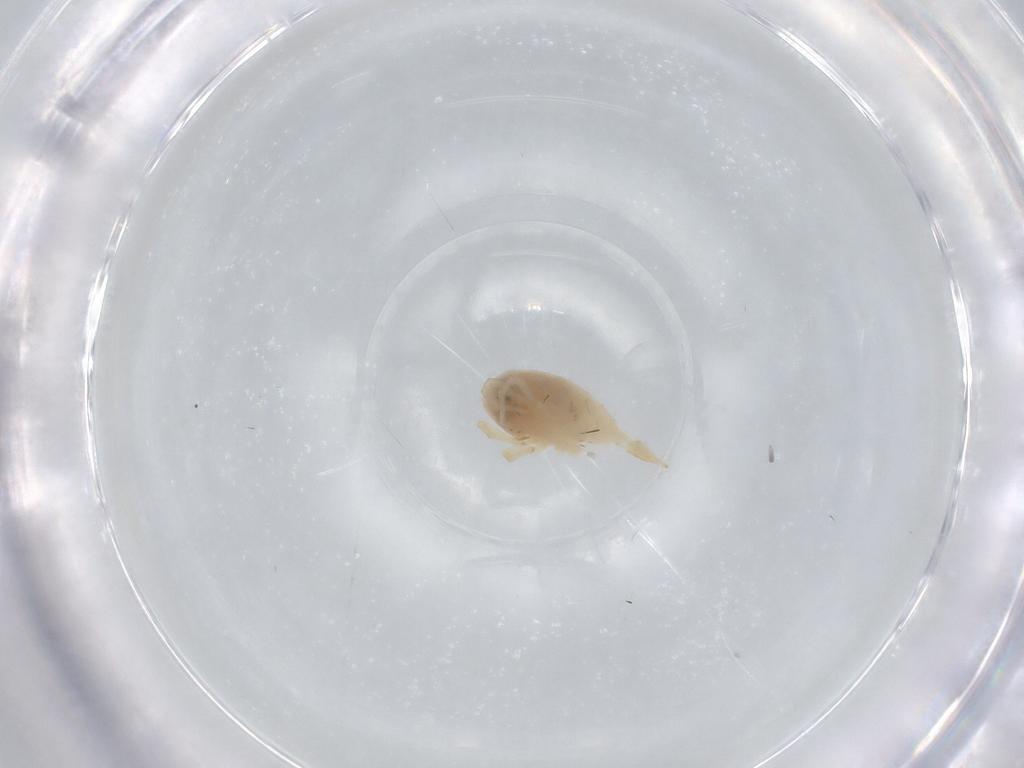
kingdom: Animalia
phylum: Arthropoda
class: Arachnida
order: Trombidiformes
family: Bdellidae
